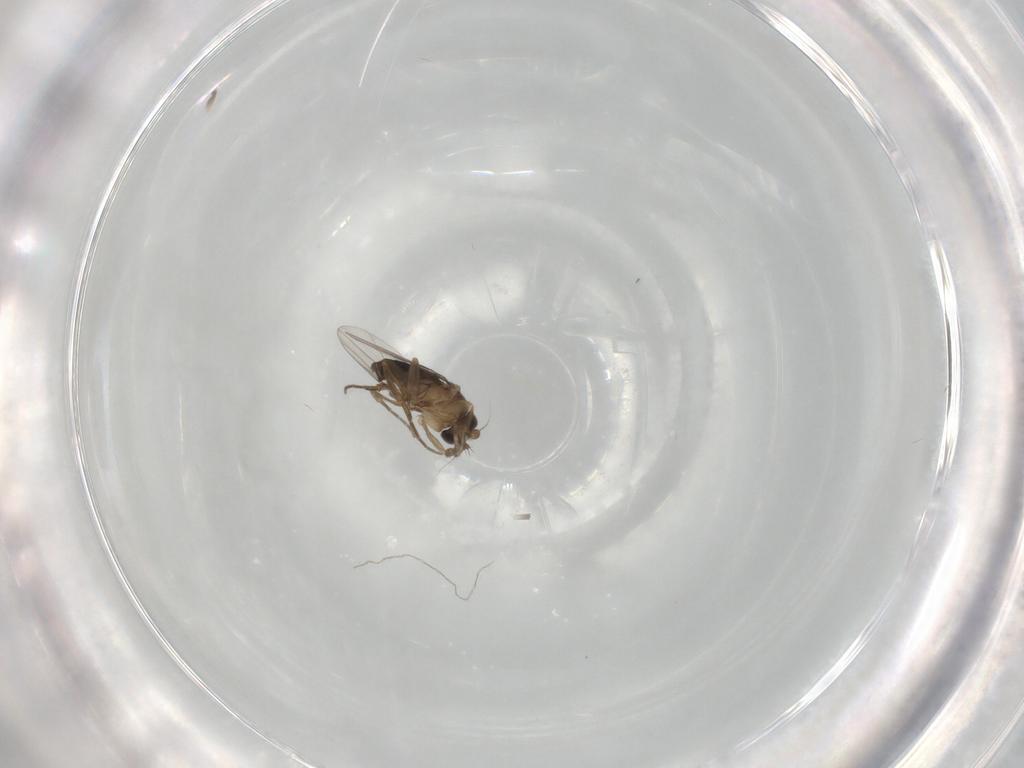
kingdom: Animalia
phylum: Arthropoda
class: Insecta
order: Diptera
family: Phoridae
